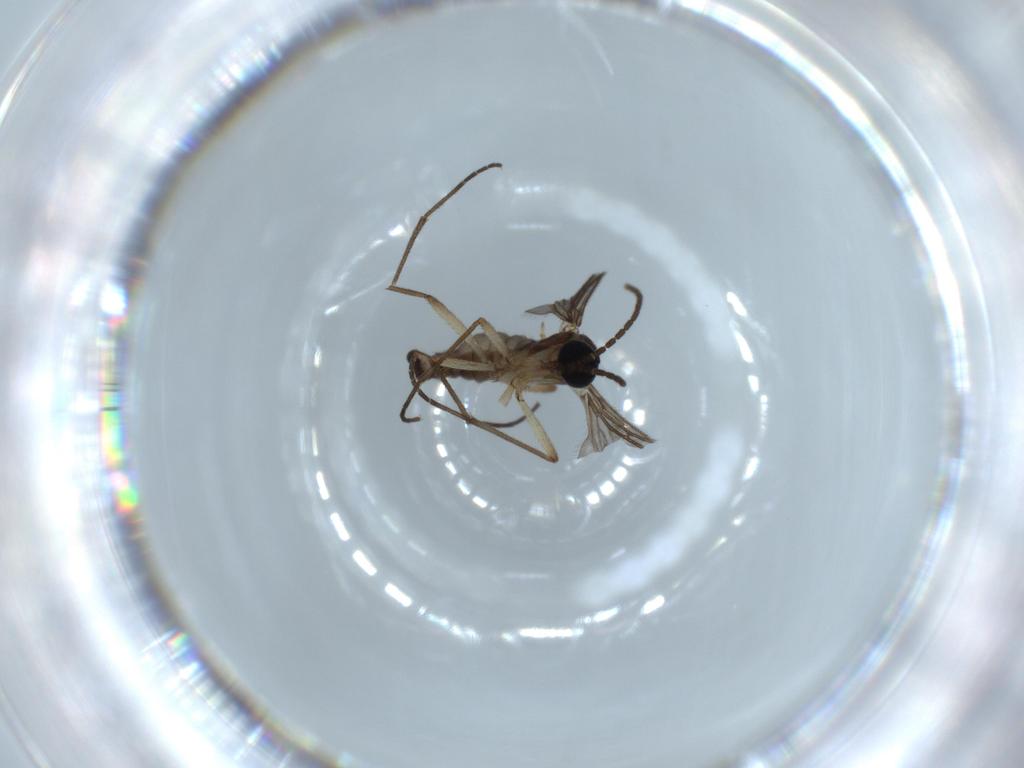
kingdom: Animalia
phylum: Arthropoda
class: Insecta
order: Diptera
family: Sciaridae
